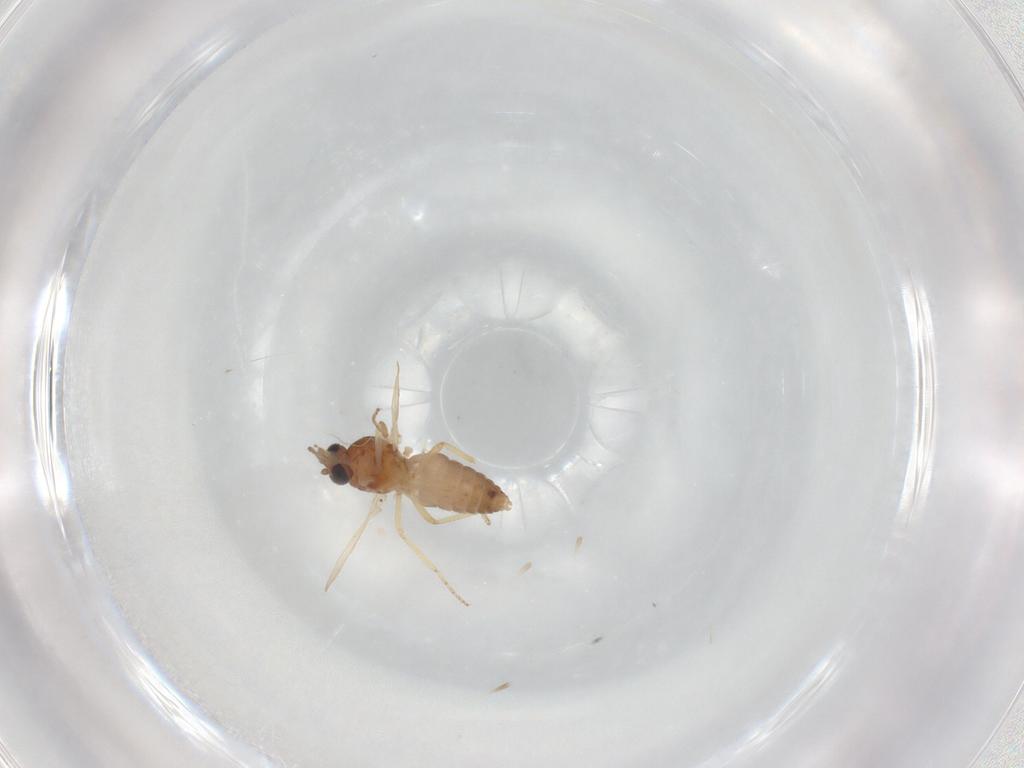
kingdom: Animalia
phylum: Arthropoda
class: Insecta
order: Diptera
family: Ceratopogonidae
